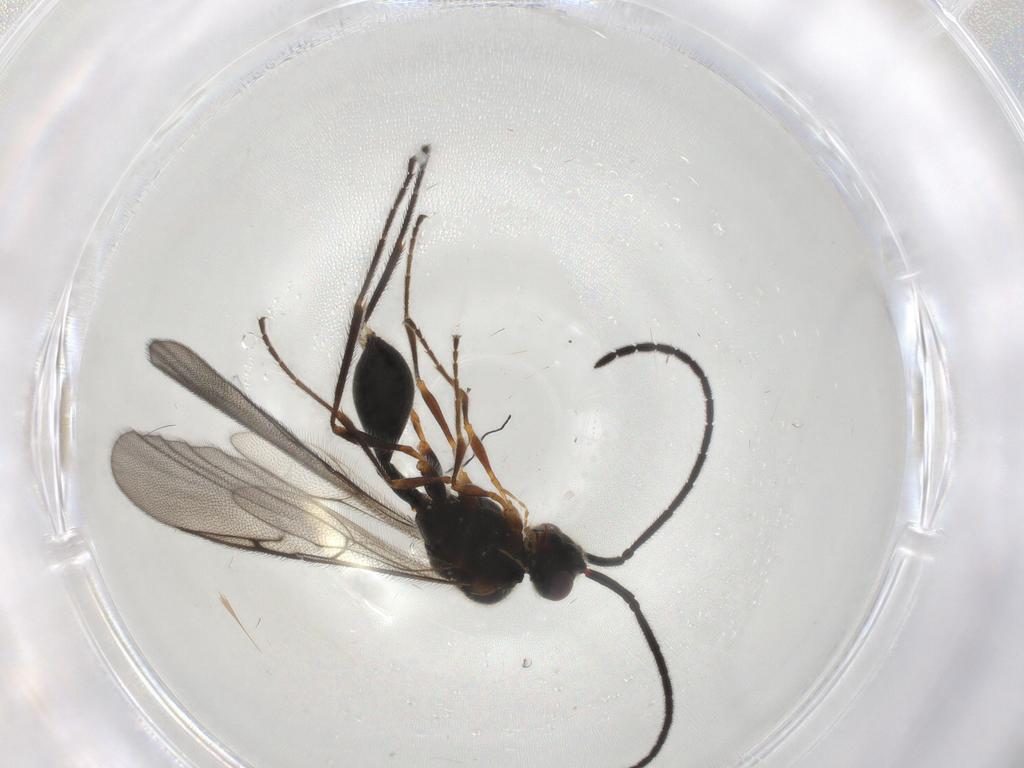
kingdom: Animalia
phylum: Arthropoda
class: Insecta
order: Hymenoptera
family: Diapriidae
